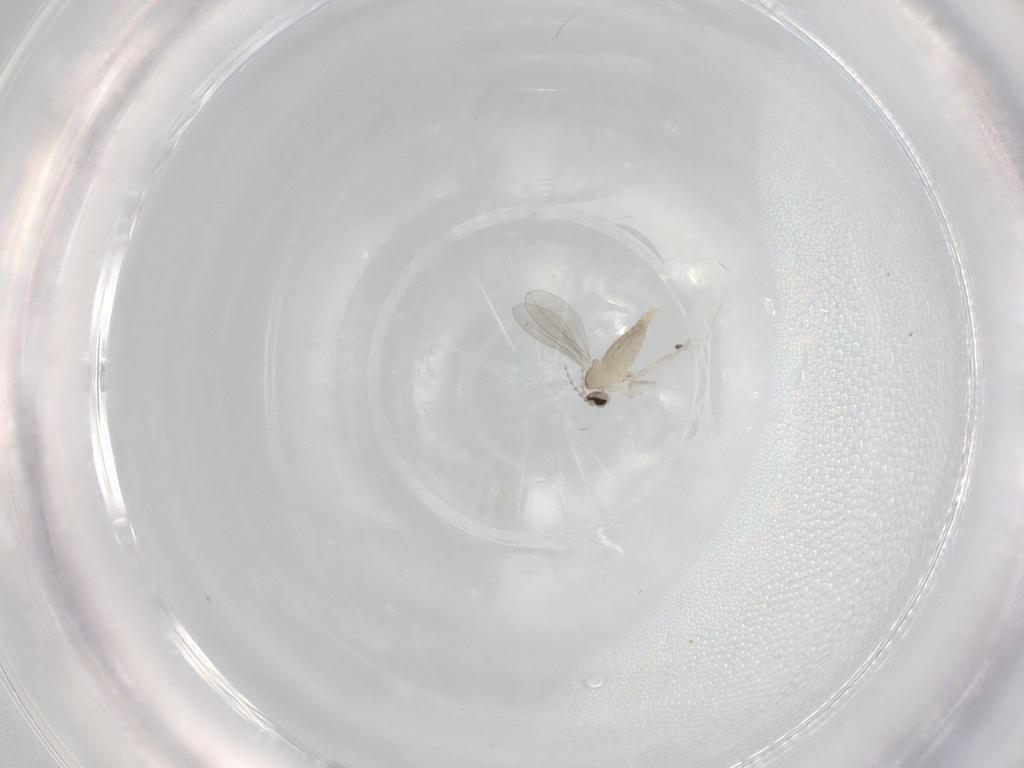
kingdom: Animalia
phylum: Arthropoda
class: Insecta
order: Diptera
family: Cecidomyiidae
